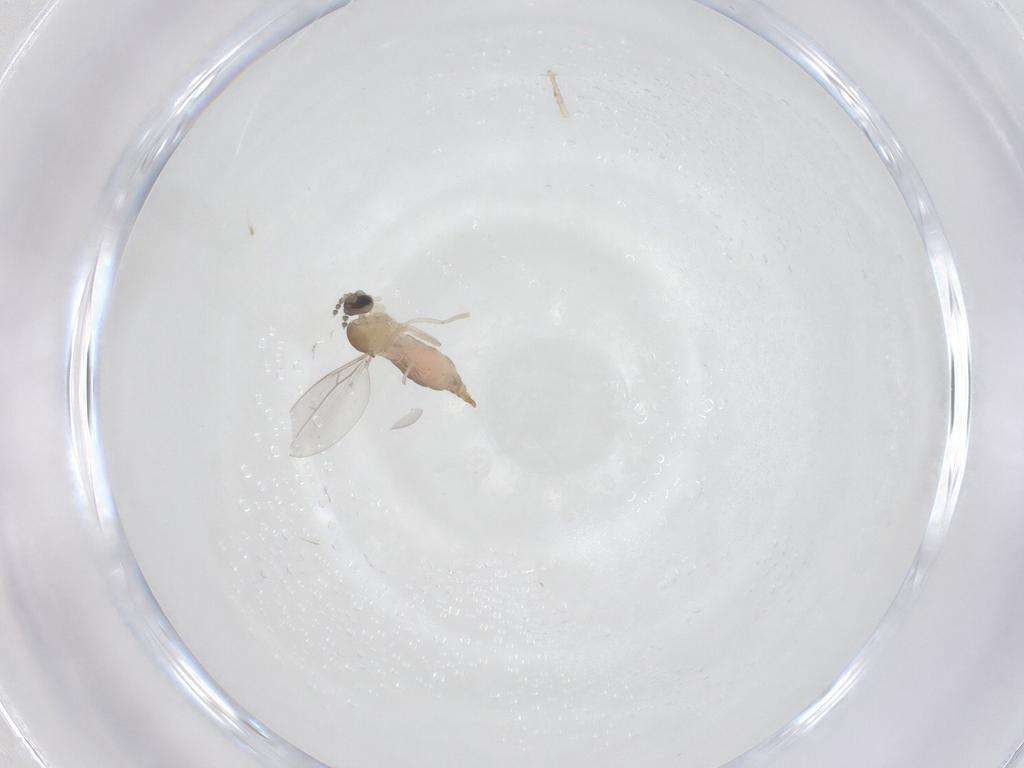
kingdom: Animalia
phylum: Arthropoda
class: Insecta
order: Diptera
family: Cecidomyiidae
